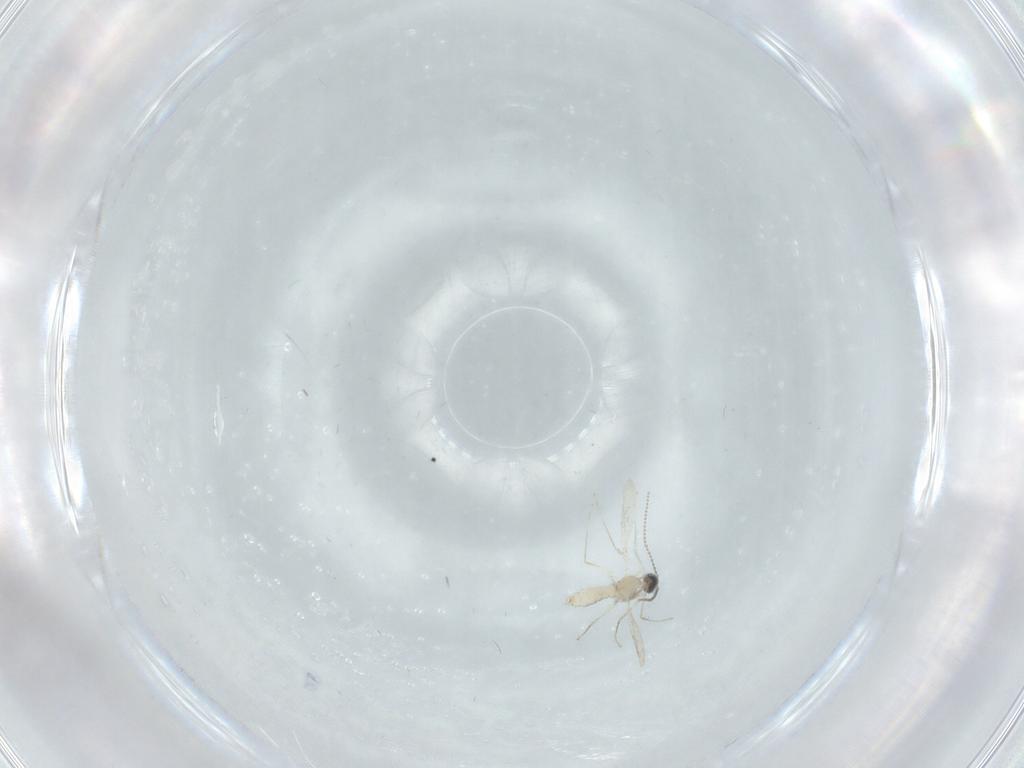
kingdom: Animalia
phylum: Arthropoda
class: Insecta
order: Diptera
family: Cecidomyiidae
